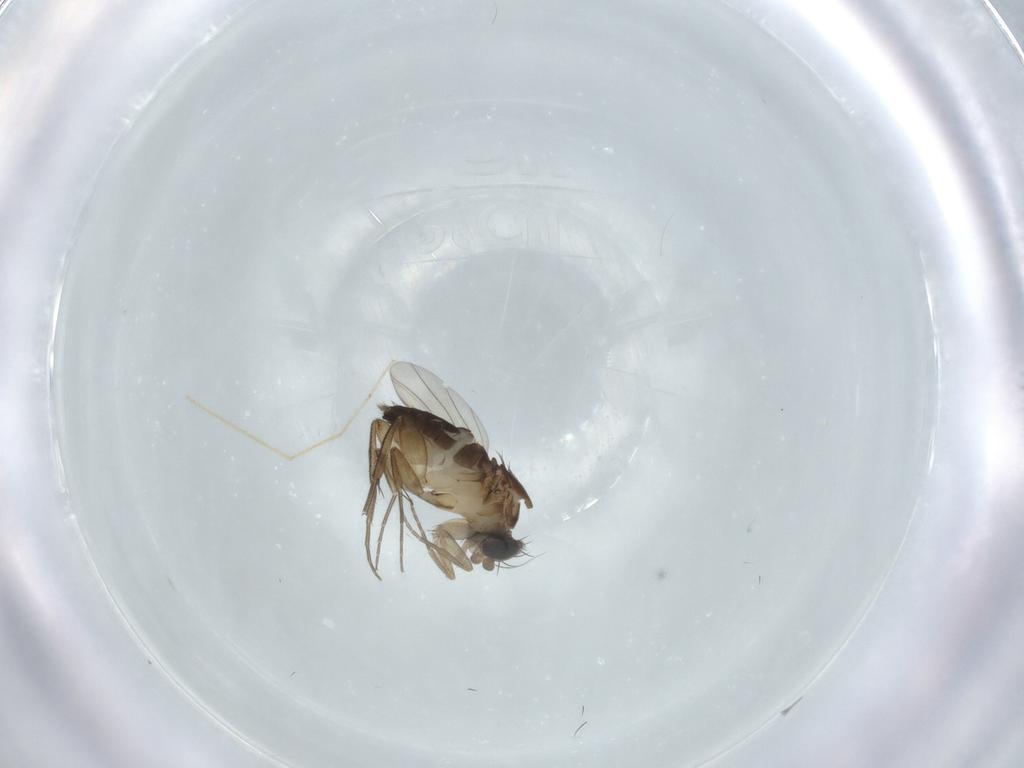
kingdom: Animalia
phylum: Arthropoda
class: Insecta
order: Diptera
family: Phoridae
